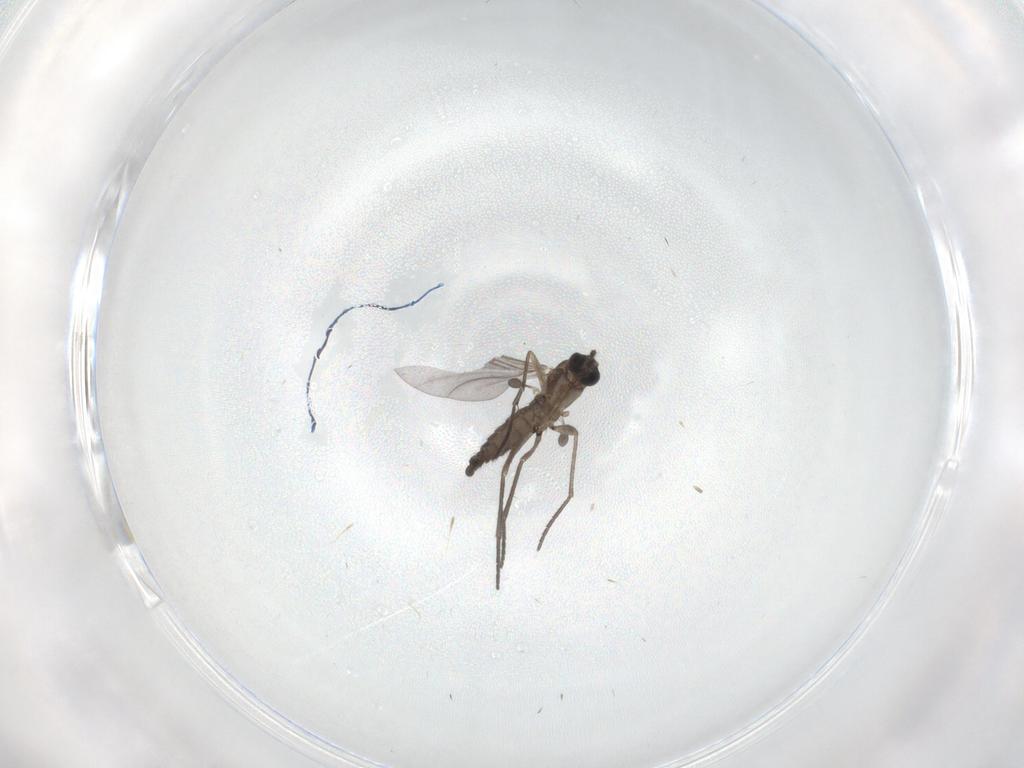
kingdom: Animalia
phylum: Arthropoda
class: Insecta
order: Diptera
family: Sciaridae
